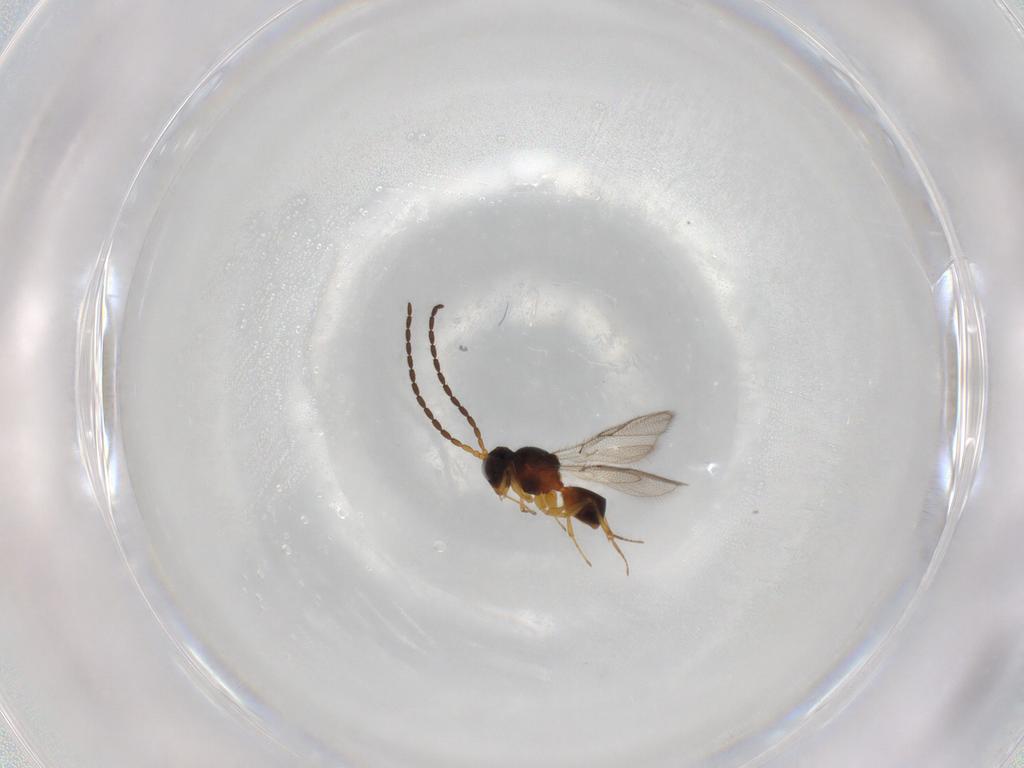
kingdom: Animalia
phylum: Arthropoda
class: Insecta
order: Hymenoptera
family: Figitidae
